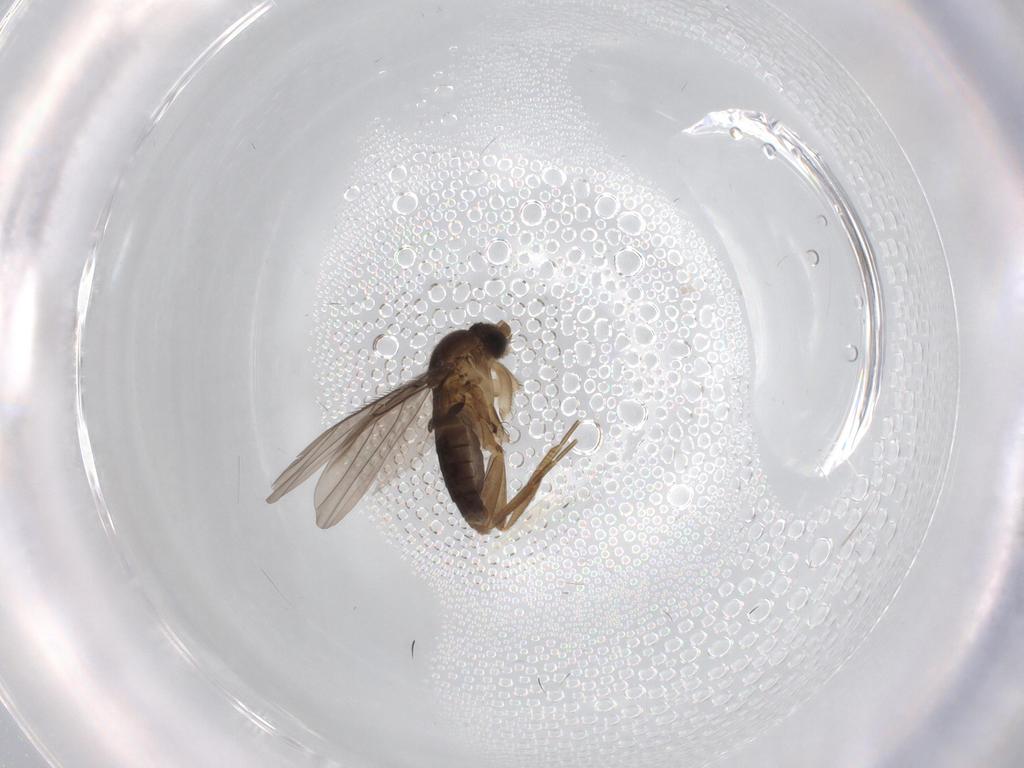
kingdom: Animalia
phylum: Arthropoda
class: Insecta
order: Diptera
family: Phoridae
